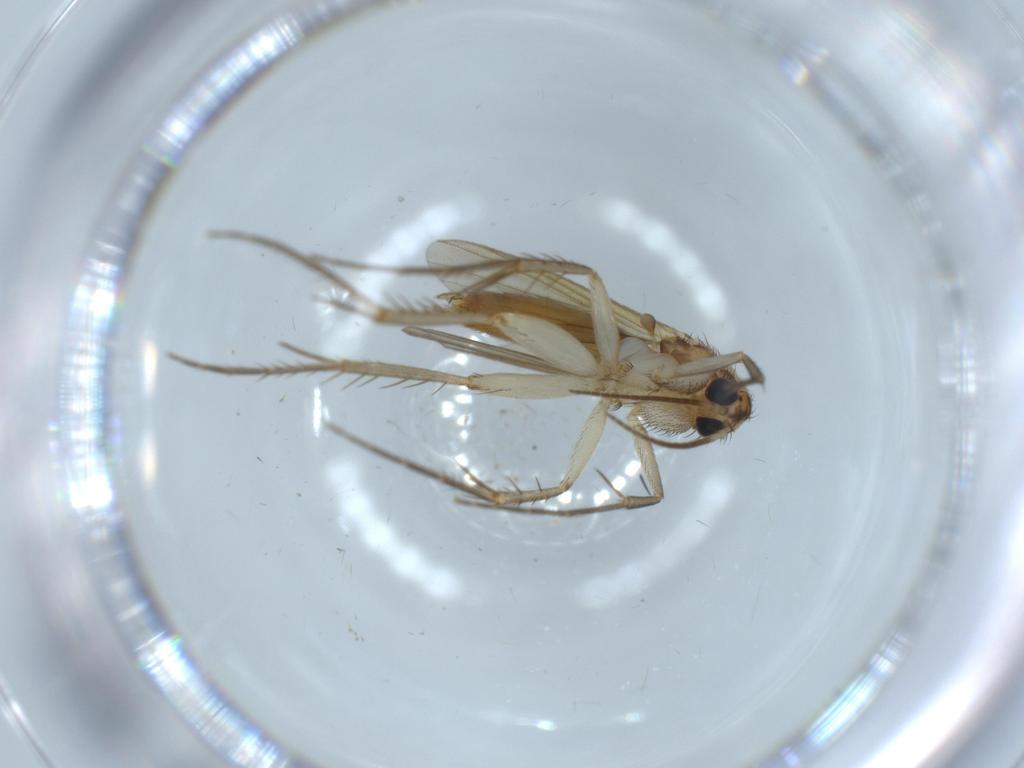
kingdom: Animalia
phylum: Arthropoda
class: Insecta
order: Diptera
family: Mycetophilidae
